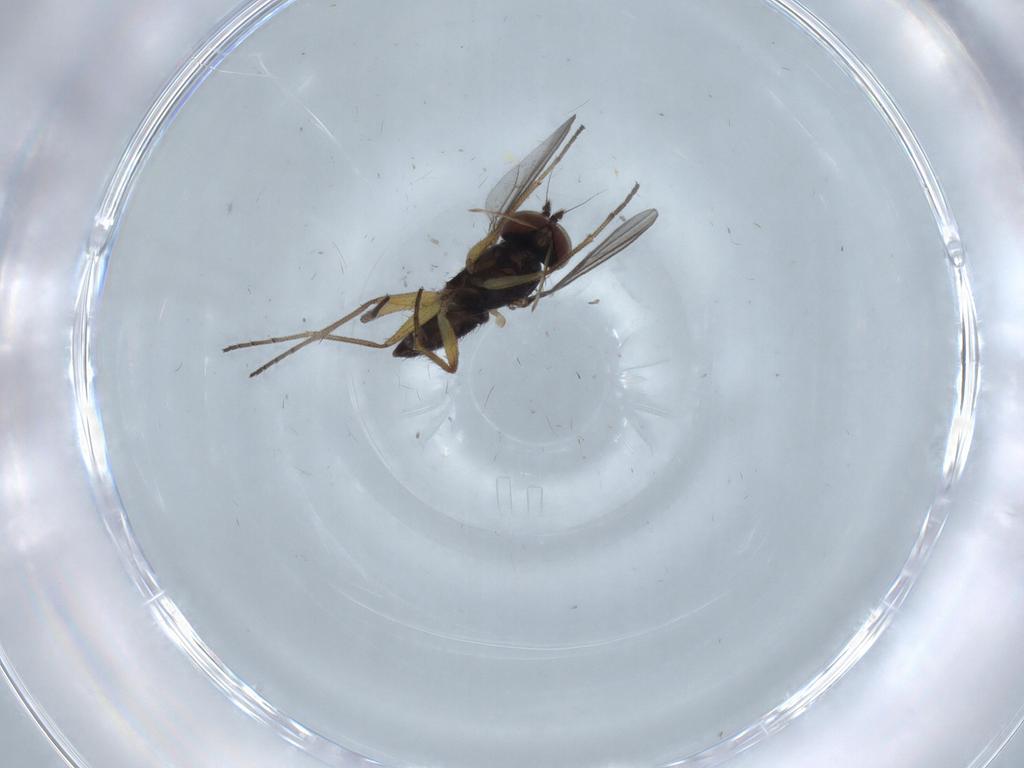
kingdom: Animalia
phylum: Arthropoda
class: Insecta
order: Diptera
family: Dolichopodidae
